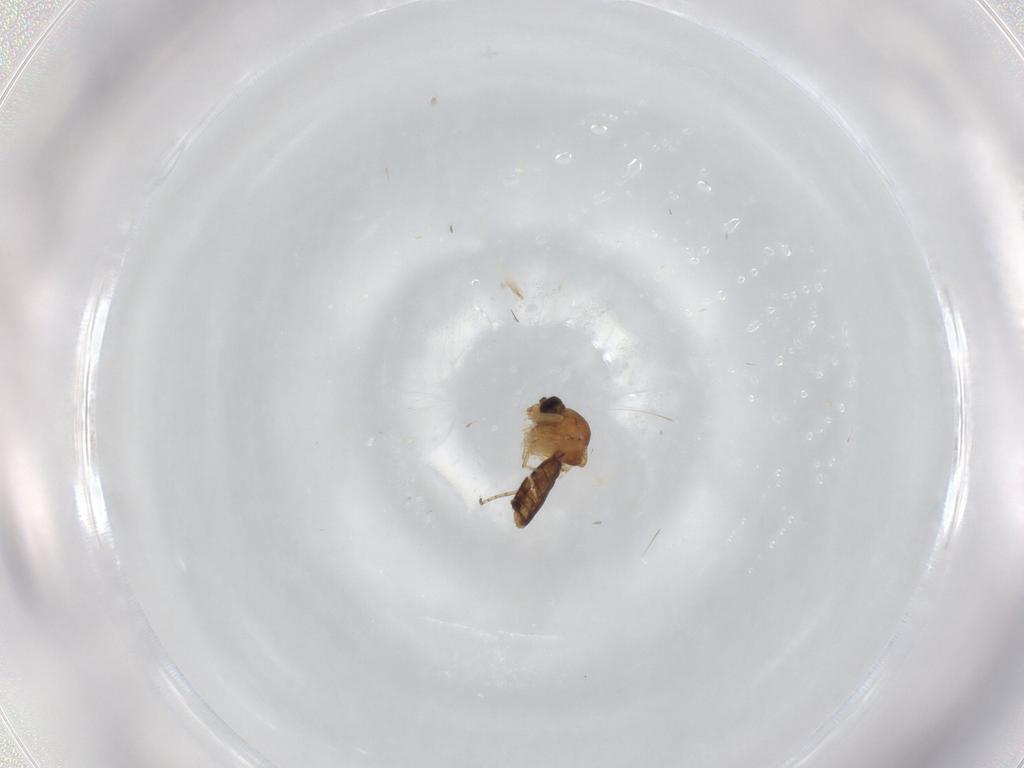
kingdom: Animalia
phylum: Arthropoda
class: Insecta
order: Diptera
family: Ceratopogonidae
